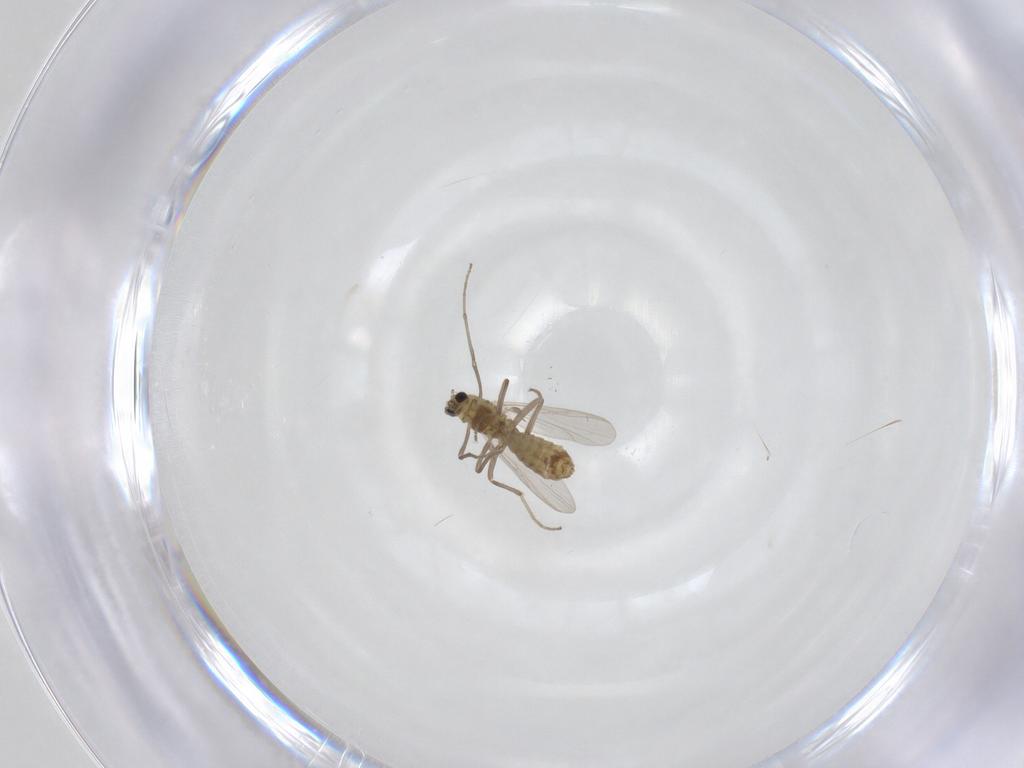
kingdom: Animalia
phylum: Arthropoda
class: Insecta
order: Diptera
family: Chironomidae
